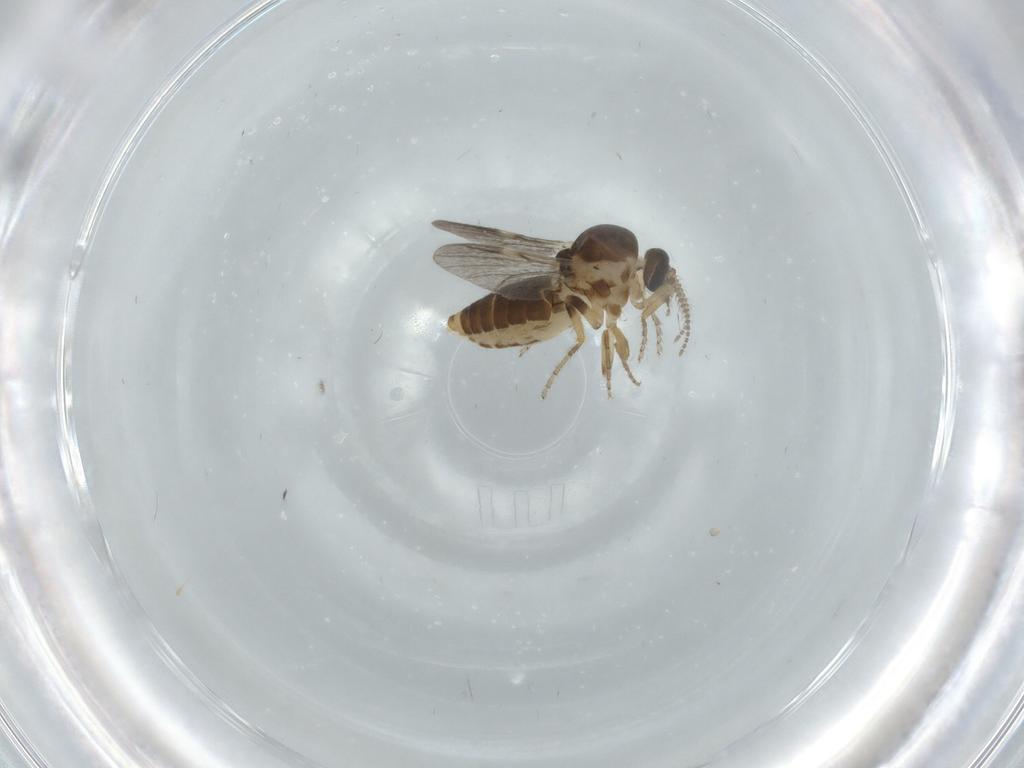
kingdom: Animalia
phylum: Arthropoda
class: Insecta
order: Diptera
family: Ceratopogonidae
